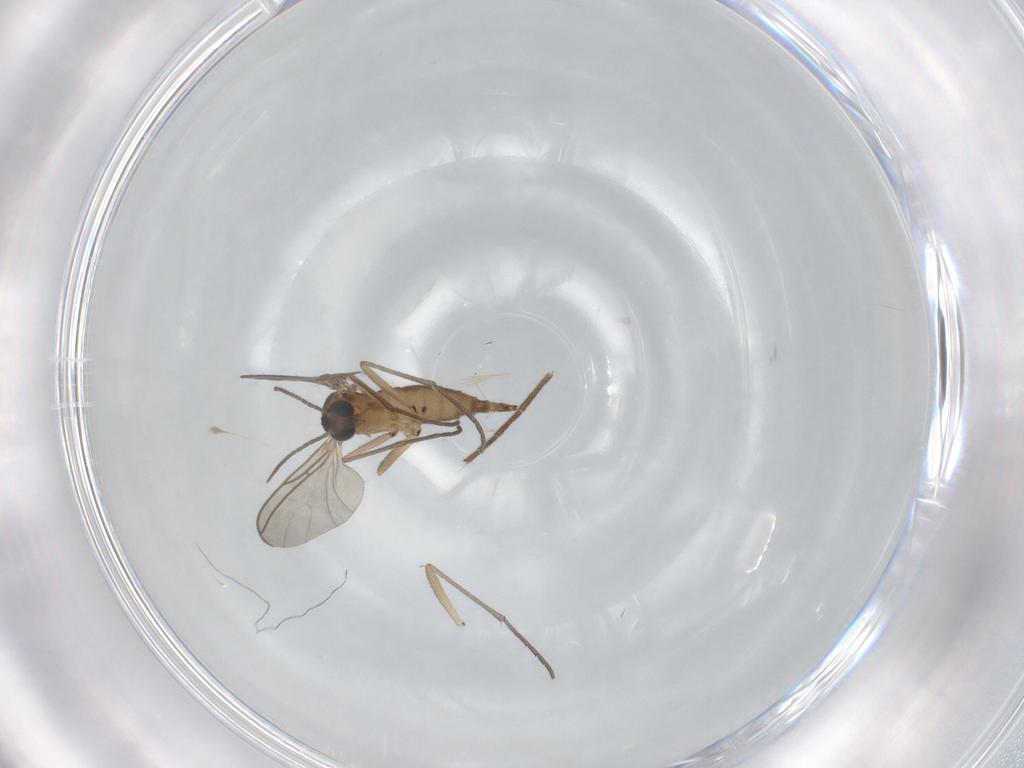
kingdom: Animalia
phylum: Arthropoda
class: Insecta
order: Diptera
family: Sciaridae
